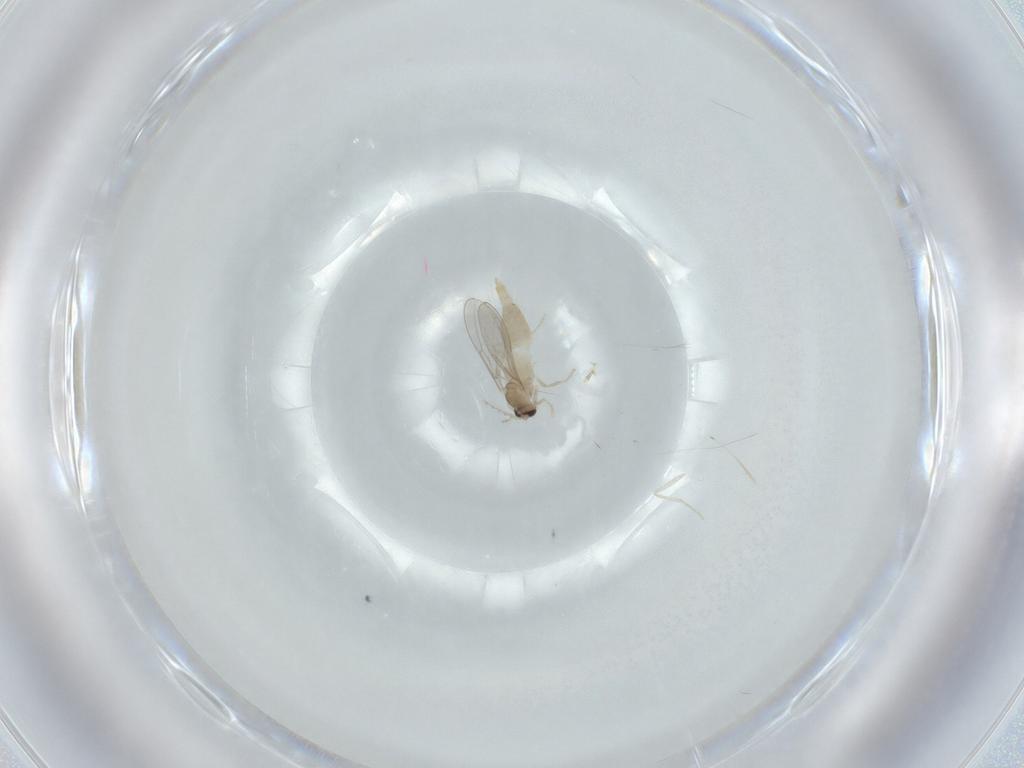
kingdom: Animalia
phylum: Arthropoda
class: Insecta
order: Diptera
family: Cecidomyiidae
